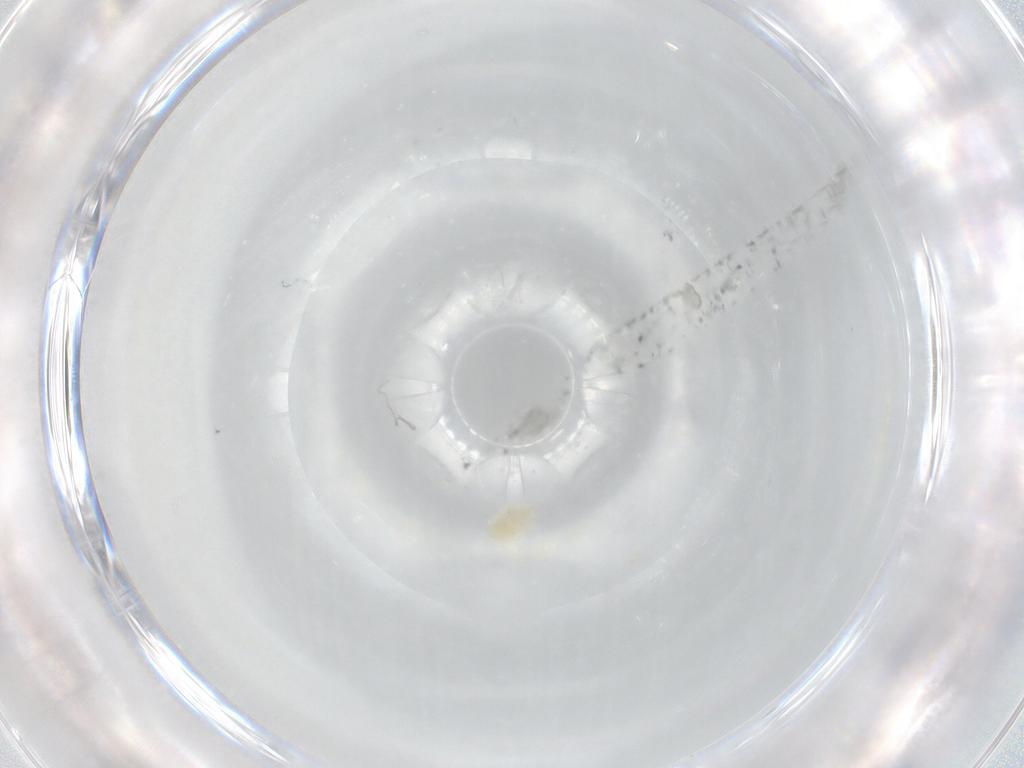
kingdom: Animalia
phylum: Arthropoda
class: Arachnida
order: Trombidiformes
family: Eupodidae
